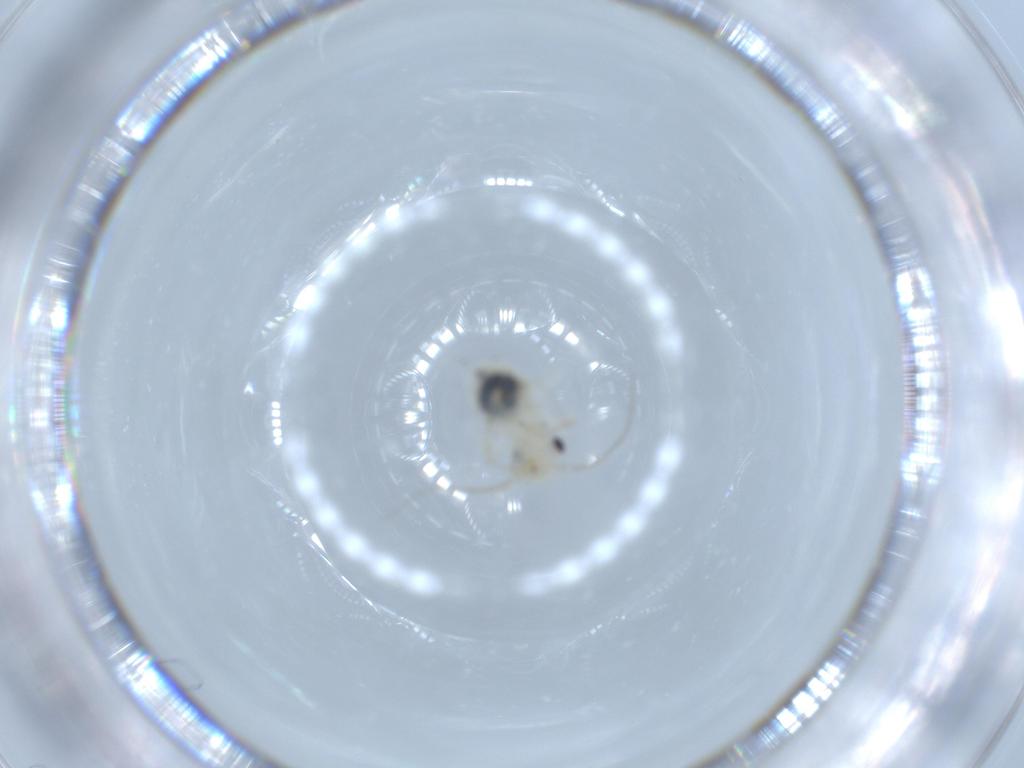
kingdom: Animalia
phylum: Arthropoda
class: Insecta
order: Psocodea
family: Caeciliusidae
